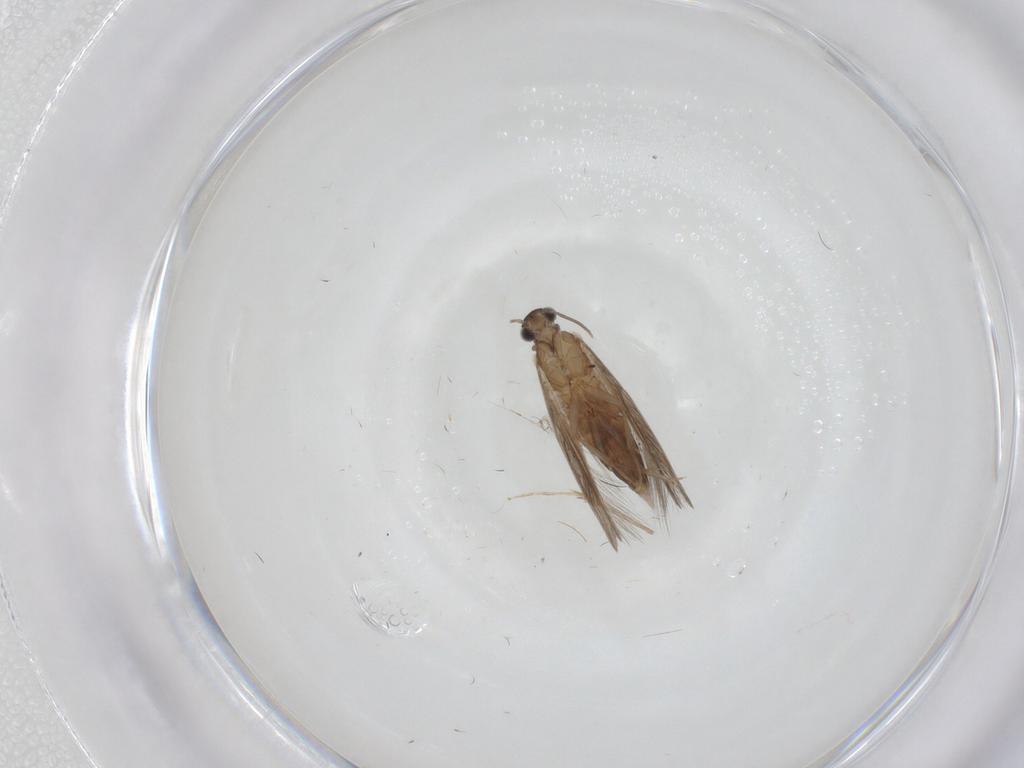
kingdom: Animalia
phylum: Arthropoda
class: Insecta
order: Trichoptera
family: Hydroptilidae
